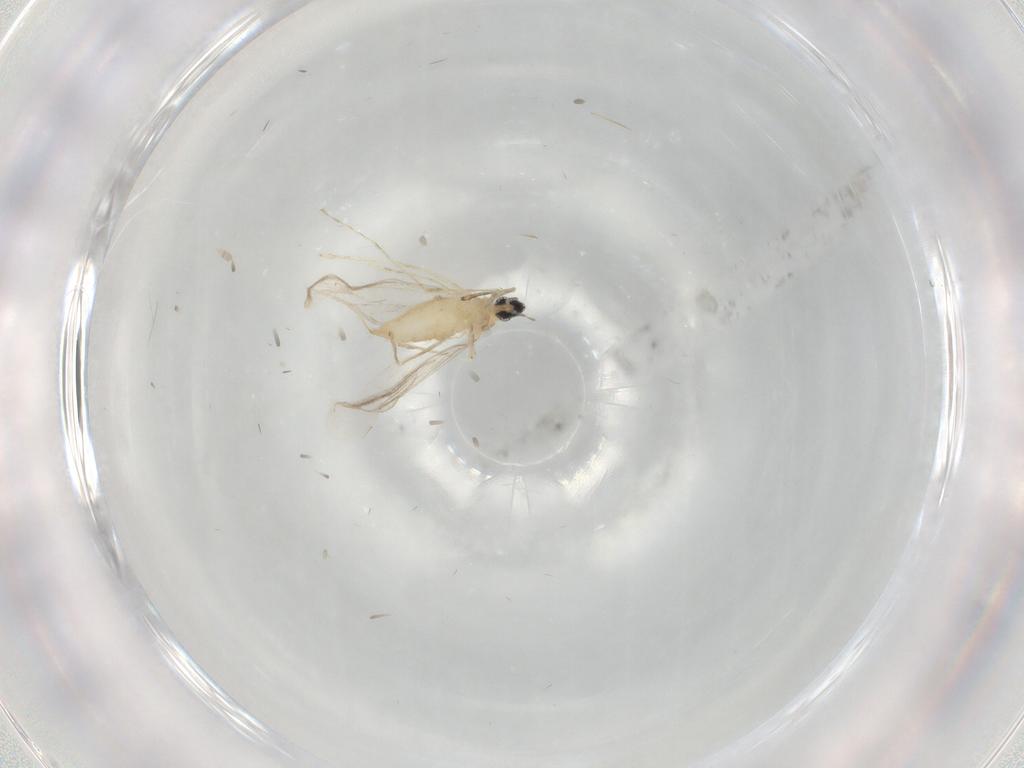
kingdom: Animalia
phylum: Arthropoda
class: Insecta
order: Diptera
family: Cecidomyiidae
